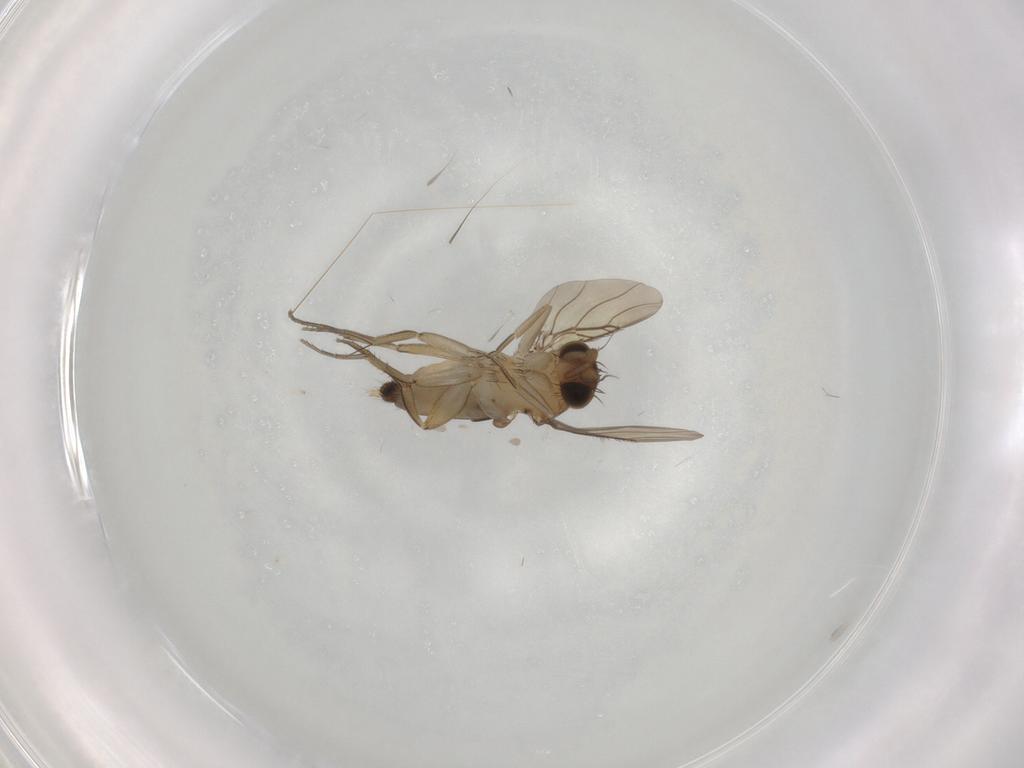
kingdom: Animalia
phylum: Arthropoda
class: Insecta
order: Diptera
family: Phoridae
